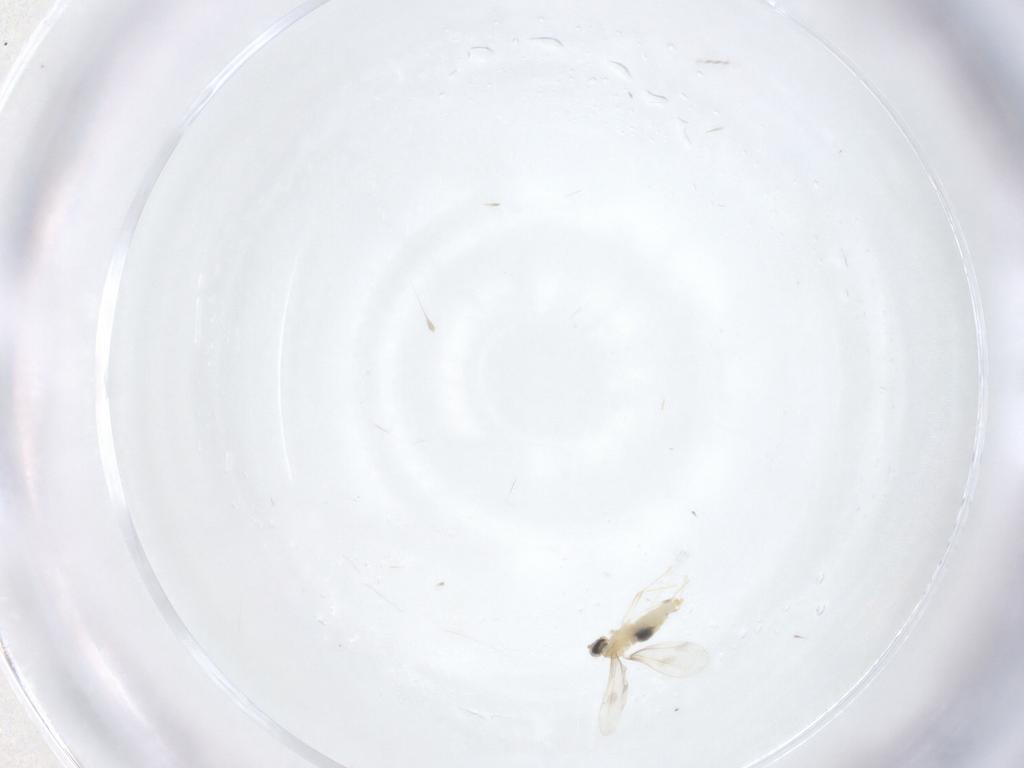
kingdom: Animalia
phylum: Arthropoda
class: Insecta
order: Diptera
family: Cecidomyiidae
